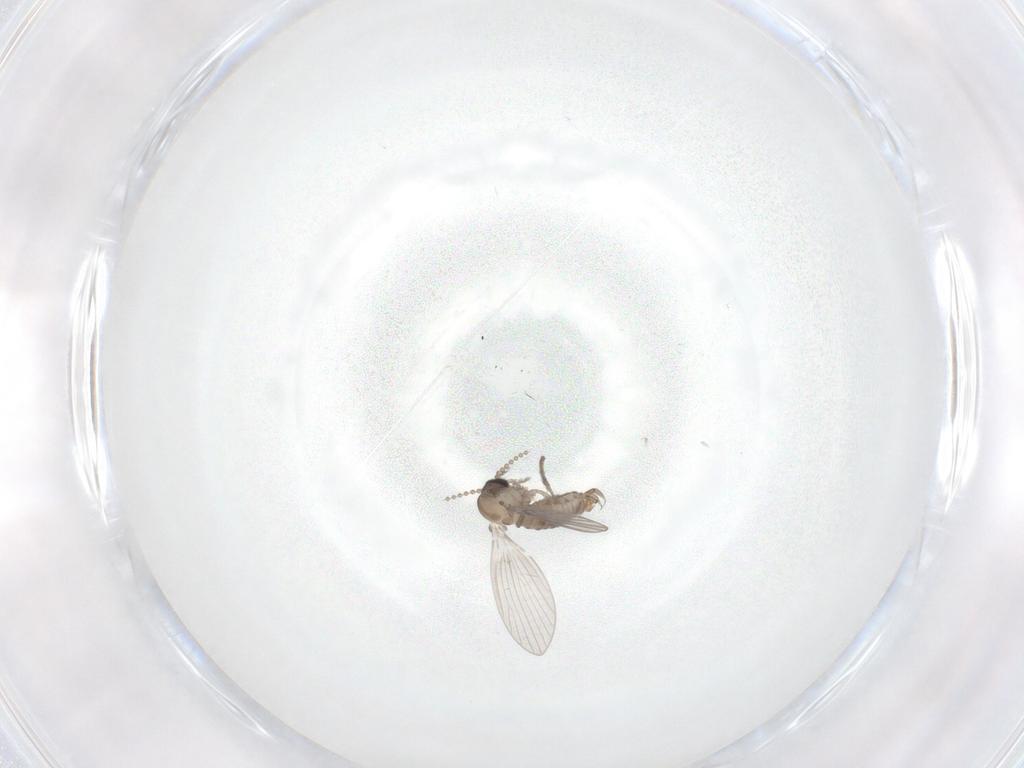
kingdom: Animalia
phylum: Arthropoda
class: Insecta
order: Diptera
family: Psychodidae
